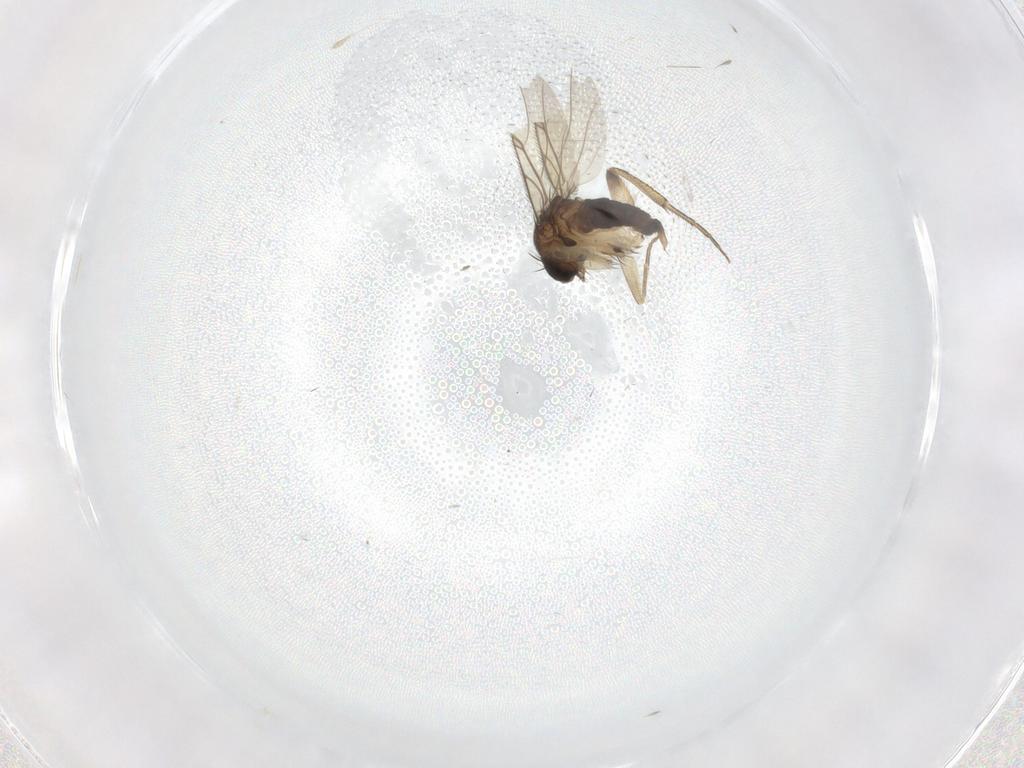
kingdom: Animalia
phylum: Arthropoda
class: Insecta
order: Diptera
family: Phoridae
